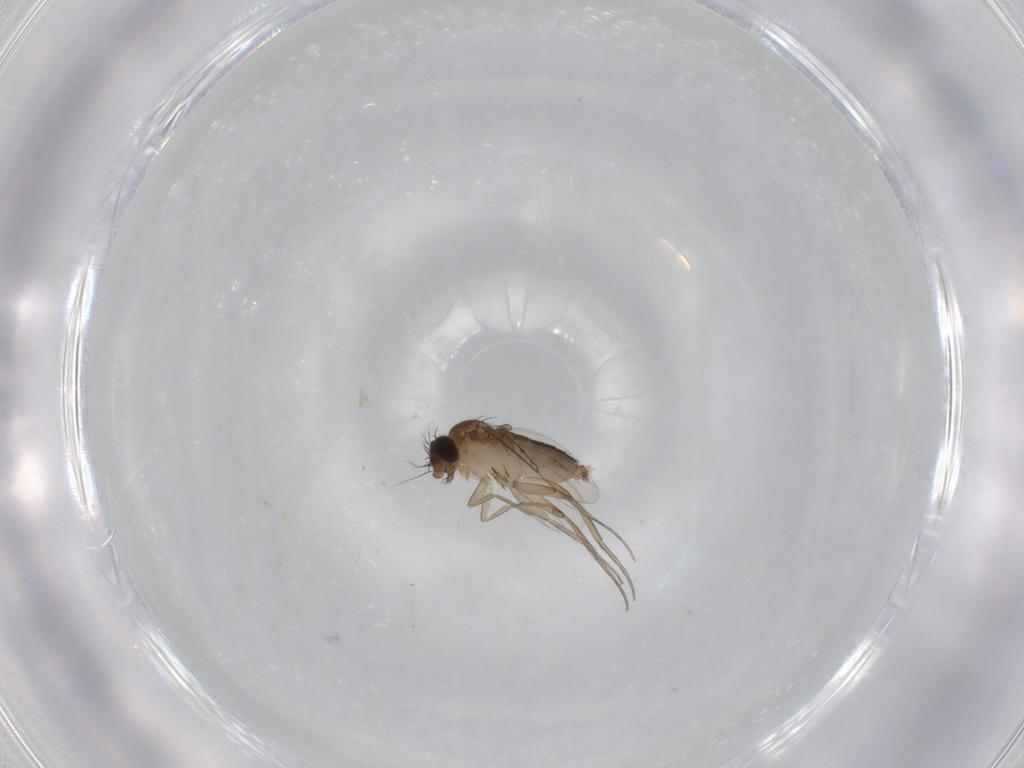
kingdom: Animalia
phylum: Arthropoda
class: Insecta
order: Diptera
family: Phoridae
